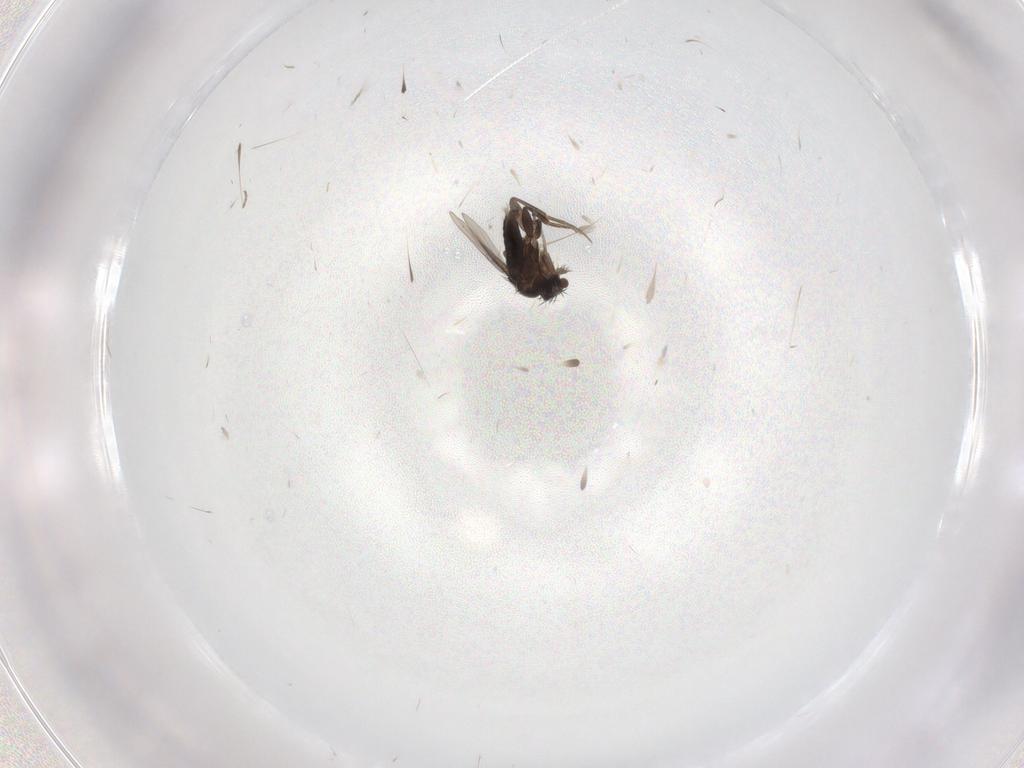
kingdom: Animalia
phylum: Arthropoda
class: Insecta
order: Diptera
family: Phoridae
